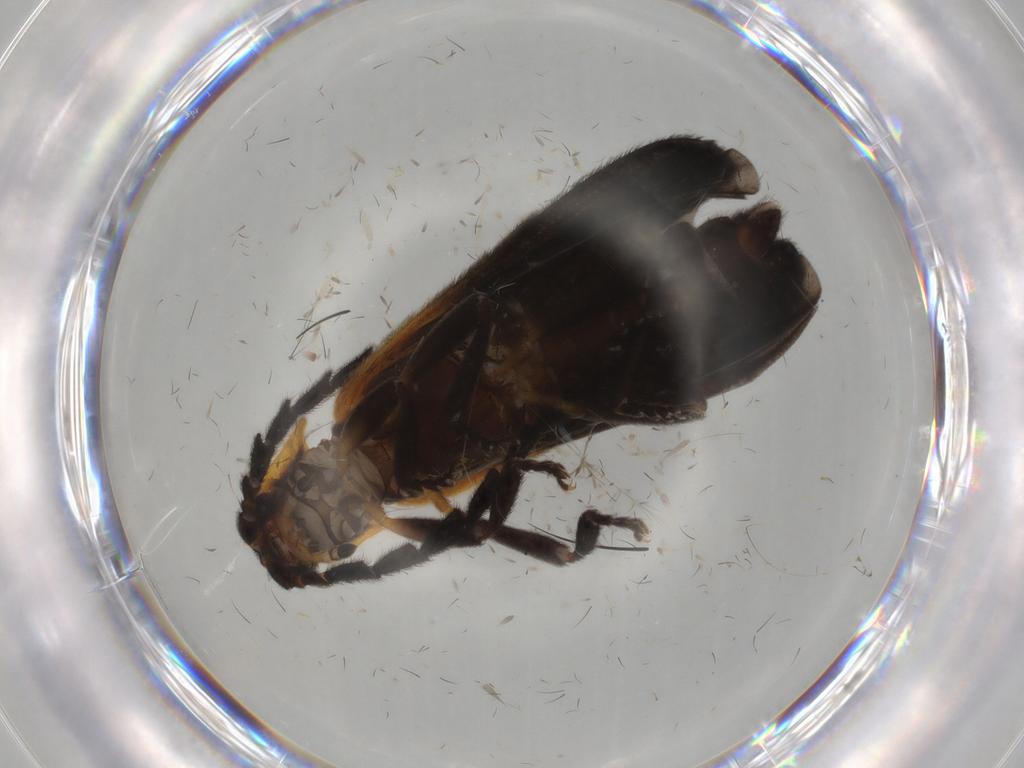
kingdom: Animalia
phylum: Arthropoda
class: Insecta
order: Coleoptera
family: Lycidae
